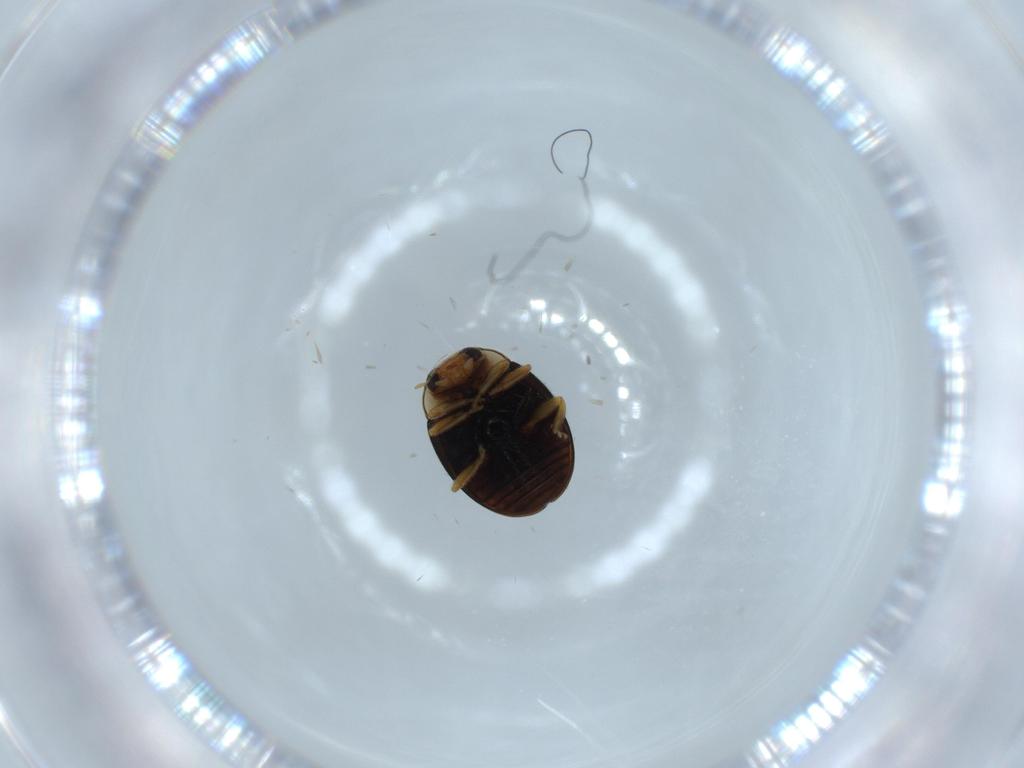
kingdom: Animalia
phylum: Arthropoda
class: Insecta
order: Coleoptera
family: Coccinellidae
